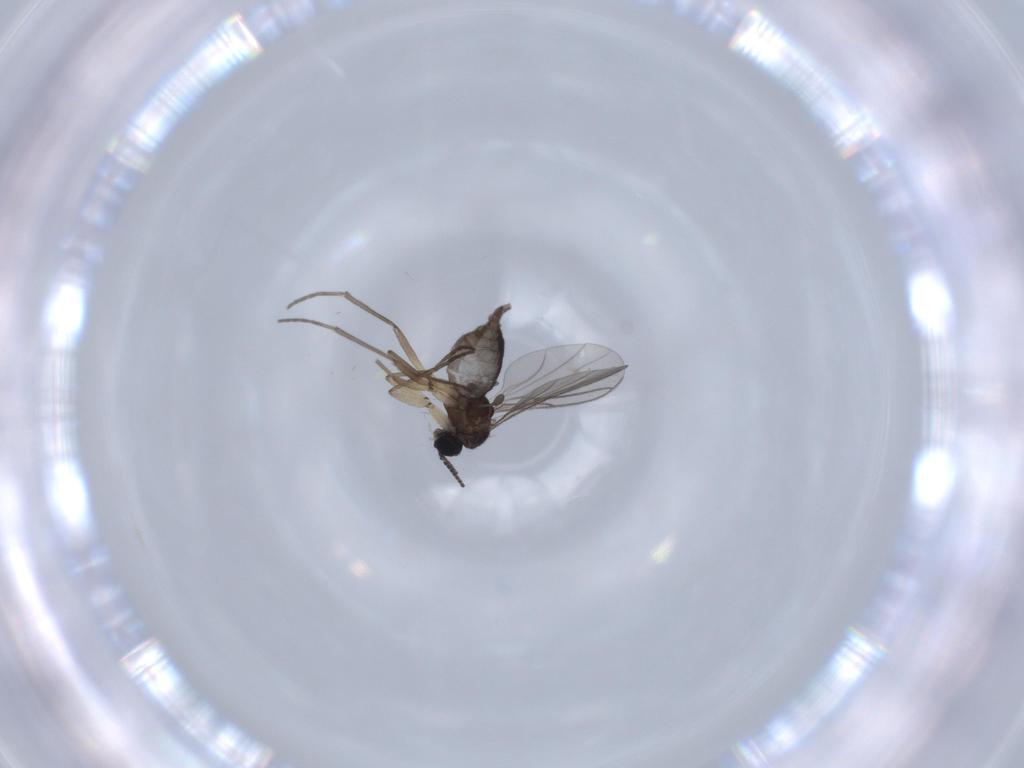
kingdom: Animalia
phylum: Arthropoda
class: Insecta
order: Diptera
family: Sciaridae
